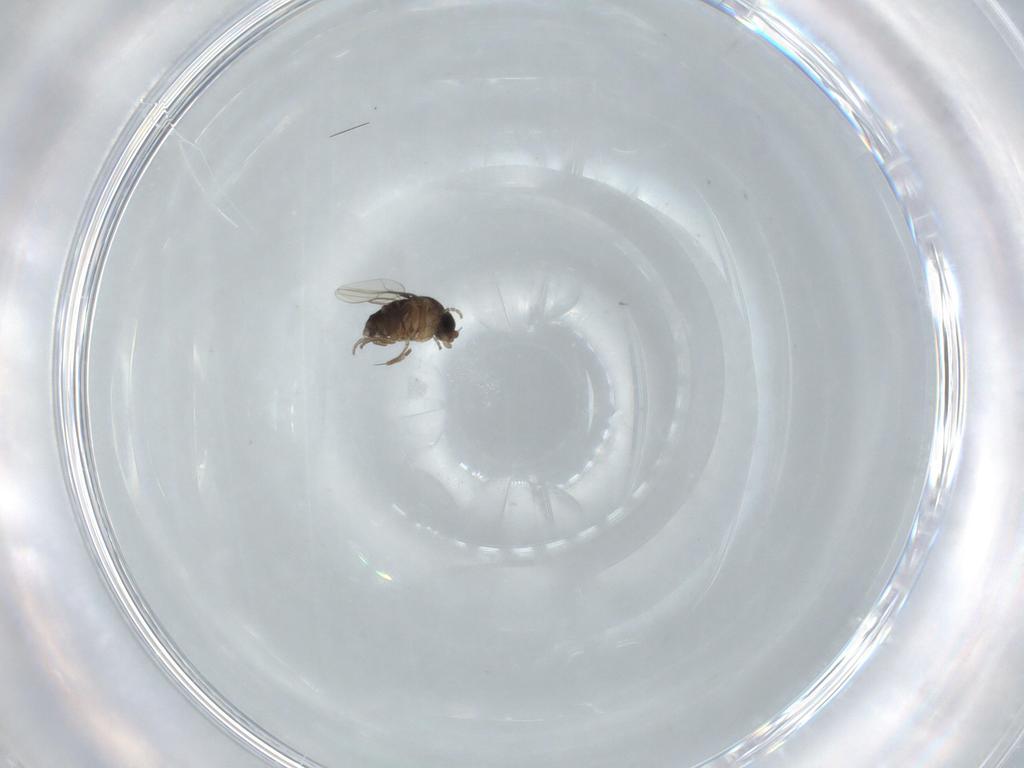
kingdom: Animalia
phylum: Arthropoda
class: Insecta
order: Diptera
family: Phoridae
